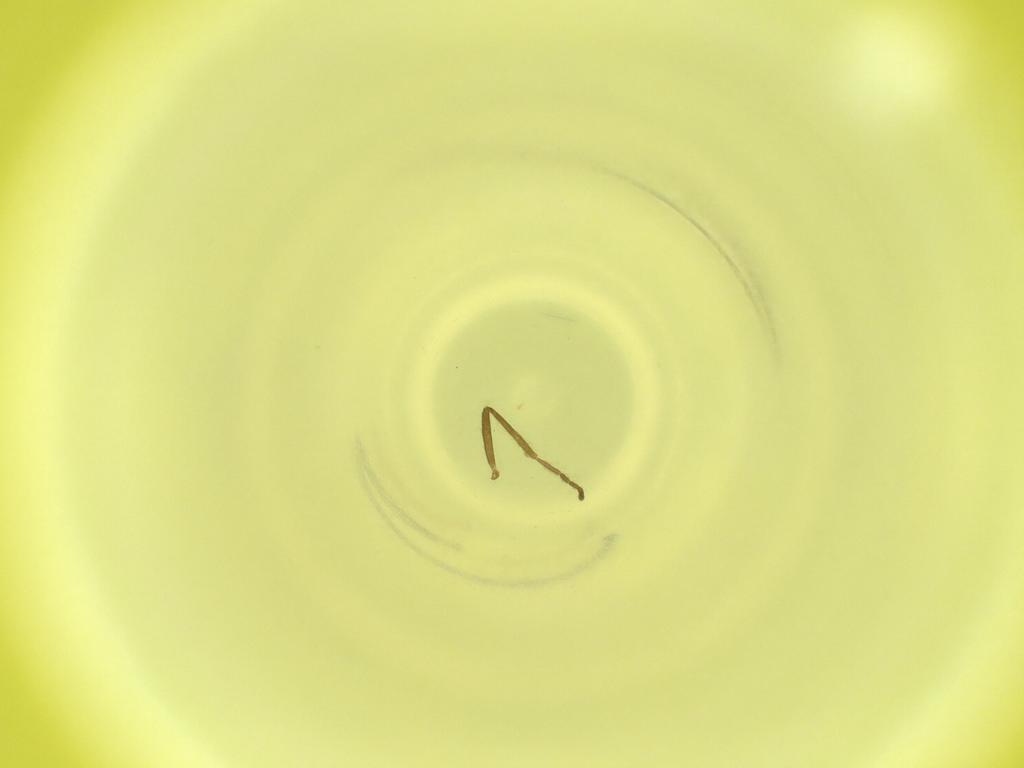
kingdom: Animalia
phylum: Arthropoda
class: Insecta
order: Diptera
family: Cecidomyiidae
